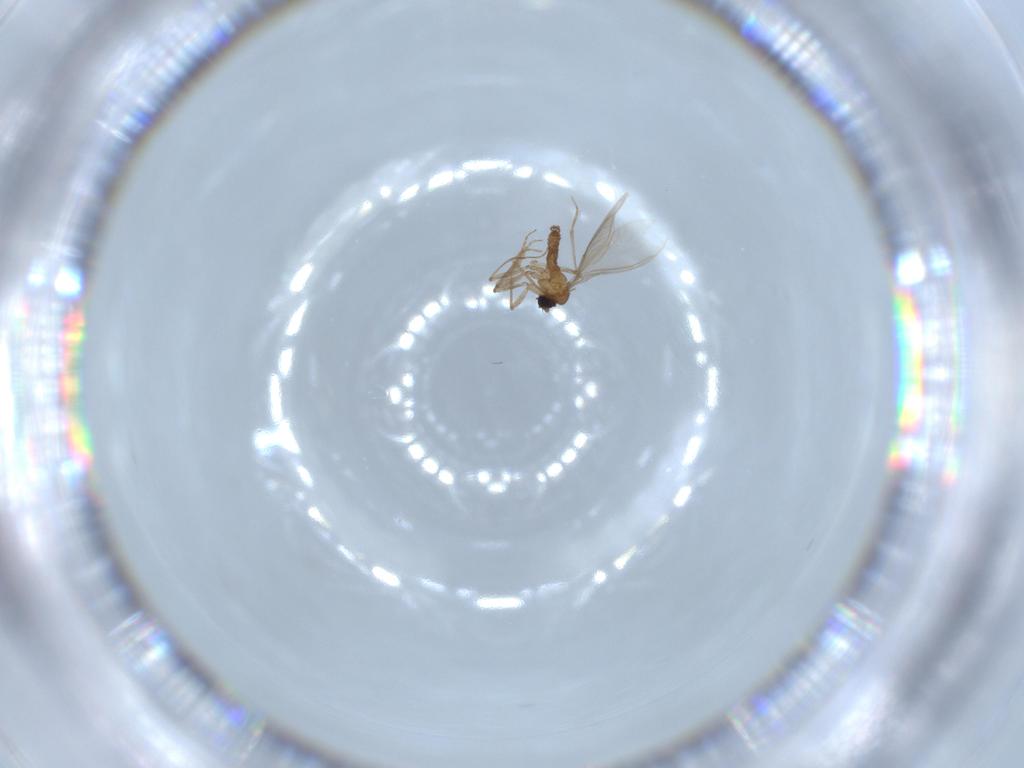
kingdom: Animalia
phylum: Arthropoda
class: Insecta
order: Diptera
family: Sciaridae
